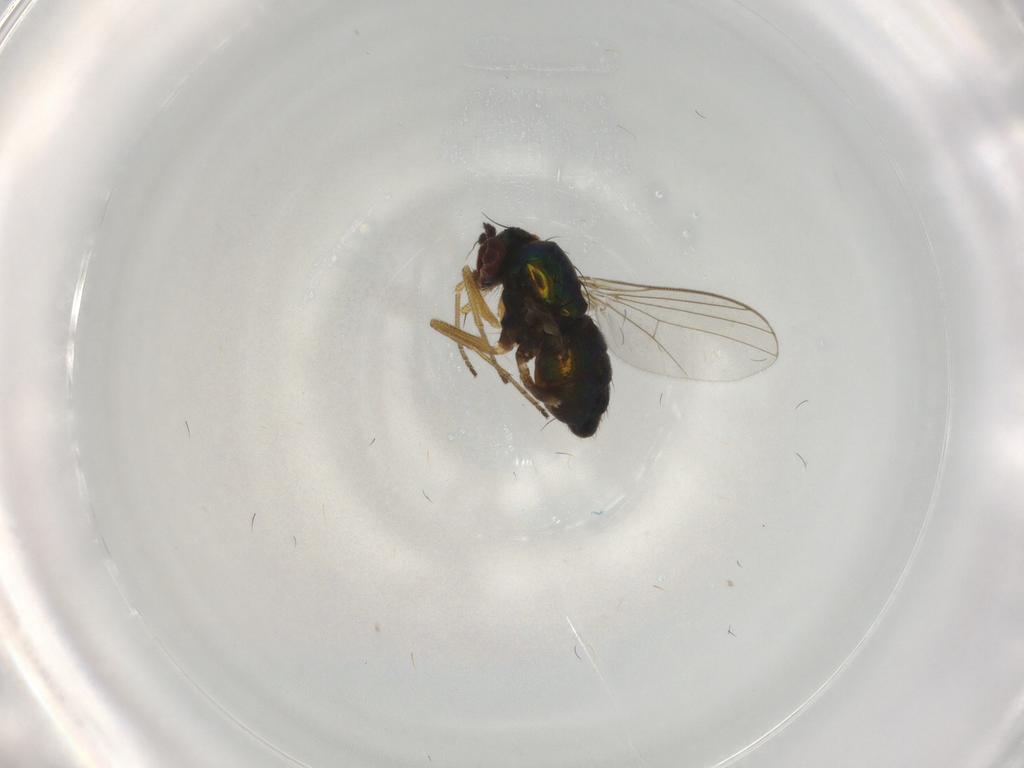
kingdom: Animalia
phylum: Arthropoda
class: Insecta
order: Diptera
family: Dolichopodidae
